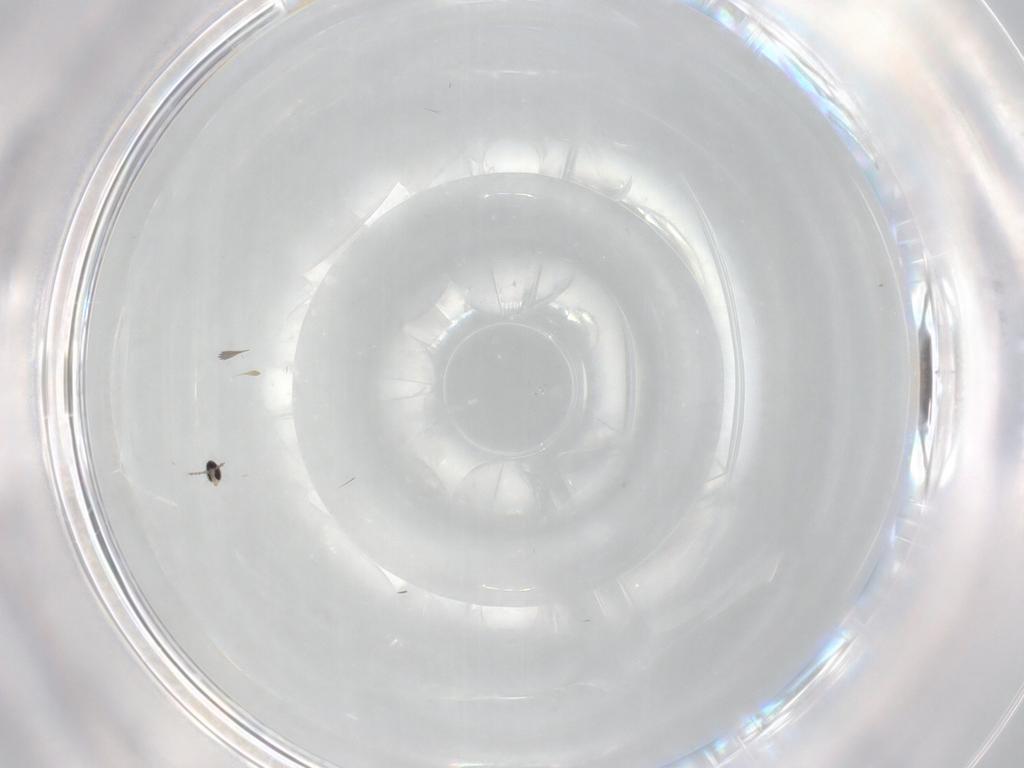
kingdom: Animalia
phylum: Arthropoda
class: Insecta
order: Diptera
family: Cecidomyiidae
